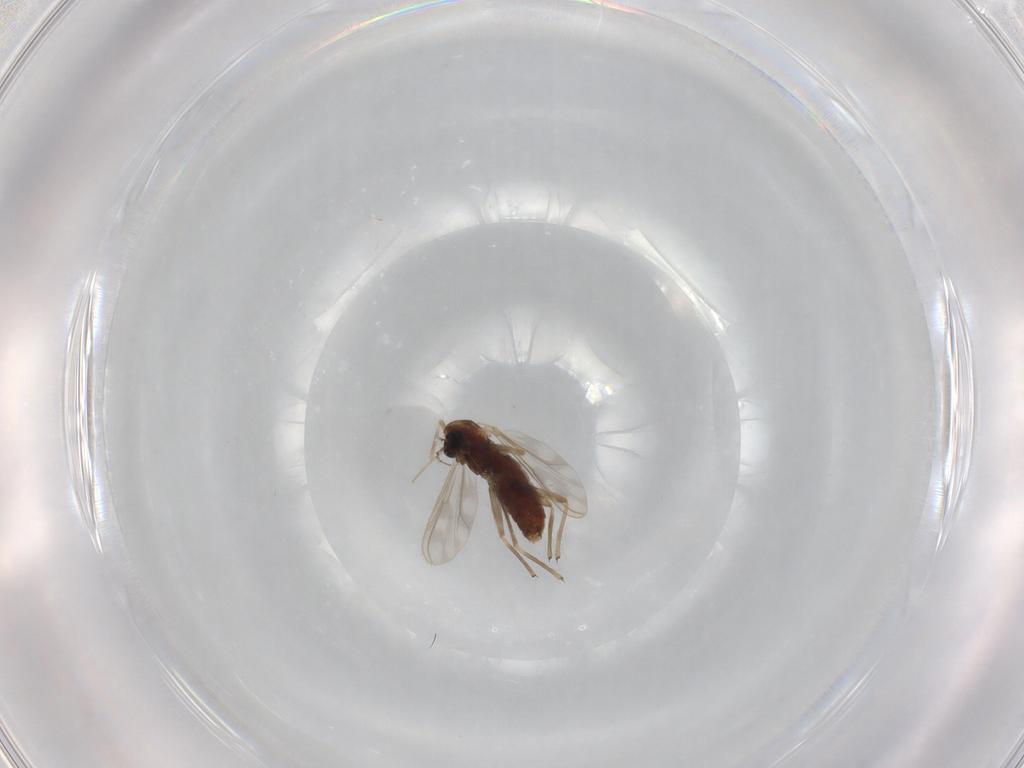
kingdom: Animalia
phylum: Arthropoda
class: Insecta
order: Diptera
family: Chironomidae
